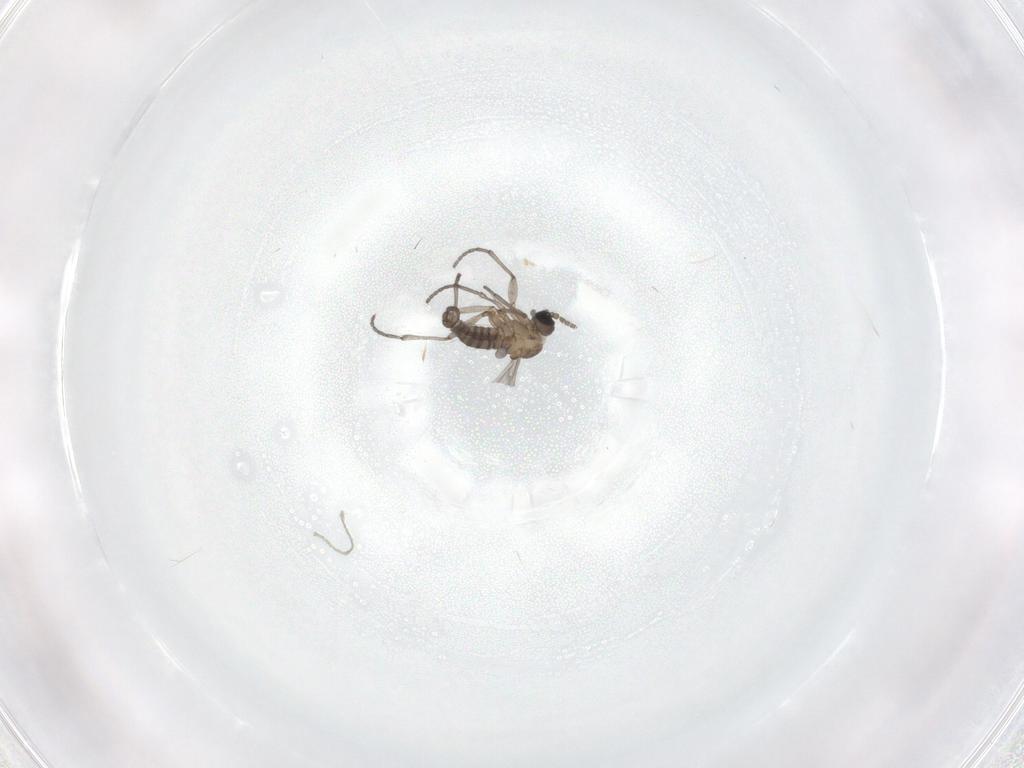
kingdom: Animalia
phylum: Arthropoda
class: Insecta
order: Diptera
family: Sciaridae
